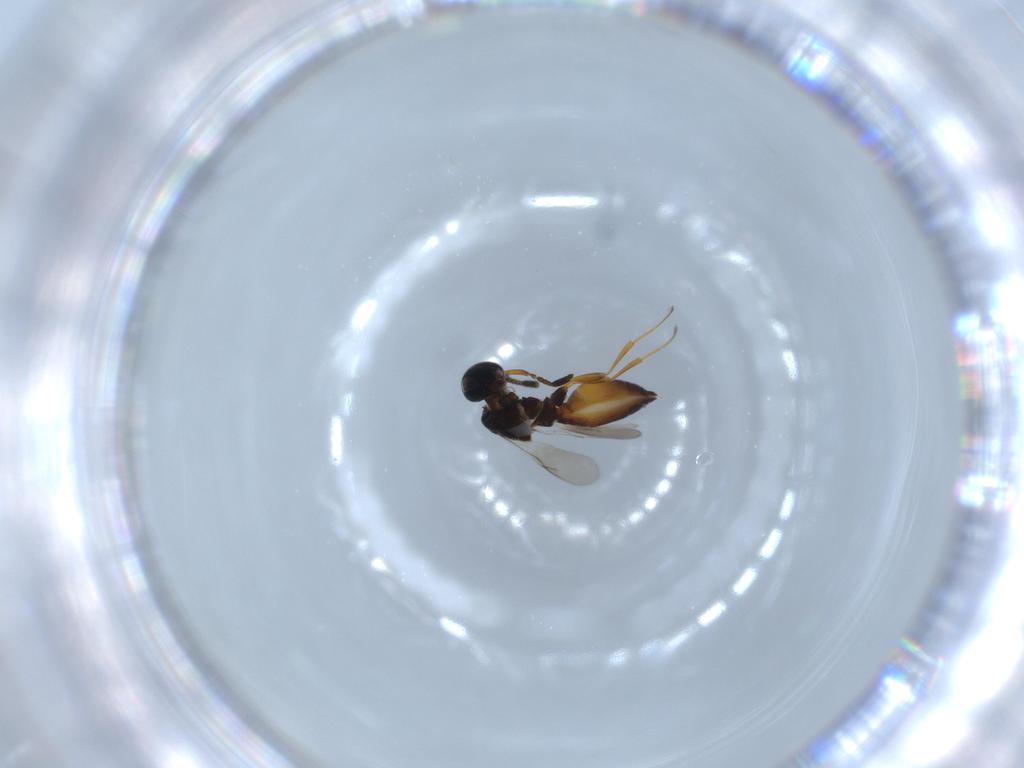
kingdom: Animalia
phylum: Arthropoda
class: Insecta
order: Hymenoptera
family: Scelionidae
